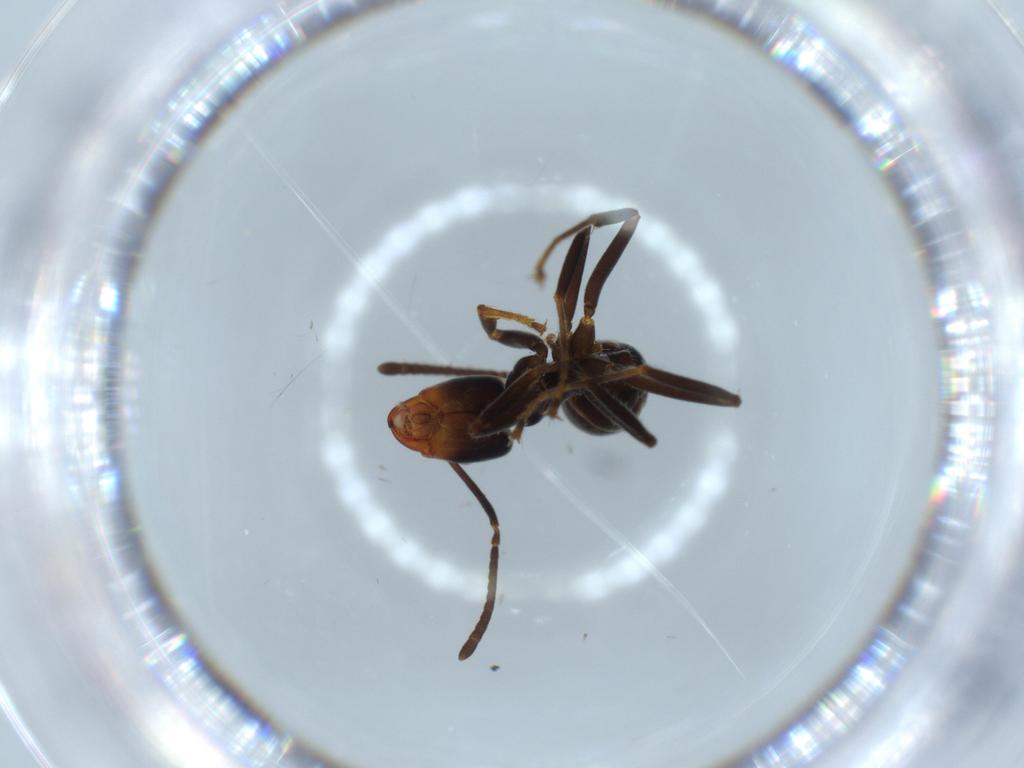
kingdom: Animalia
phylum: Arthropoda
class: Insecta
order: Hymenoptera
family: Formicidae
